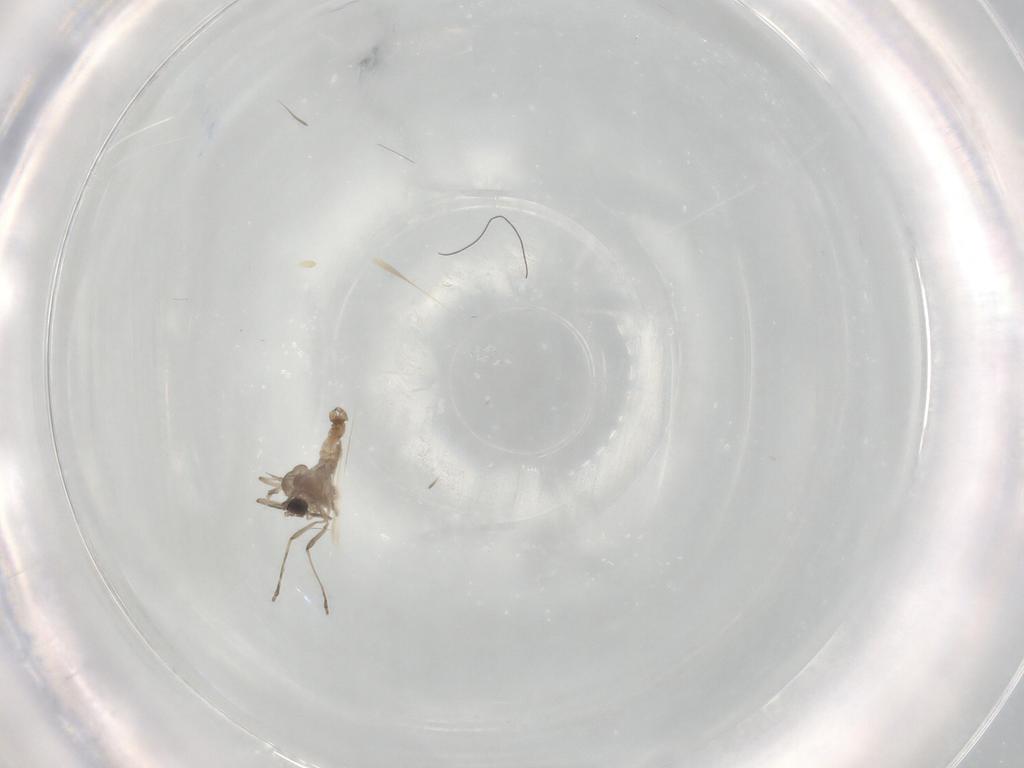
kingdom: Animalia
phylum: Arthropoda
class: Insecta
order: Diptera
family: Cecidomyiidae
